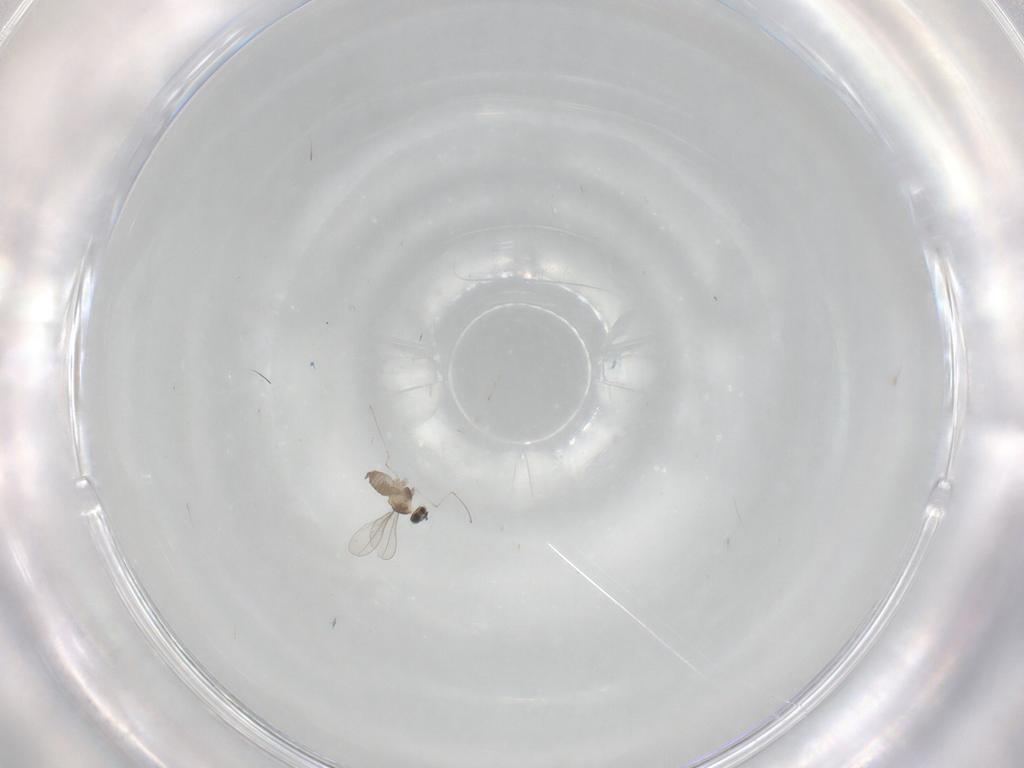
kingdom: Animalia
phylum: Arthropoda
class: Insecta
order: Diptera
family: Cecidomyiidae
